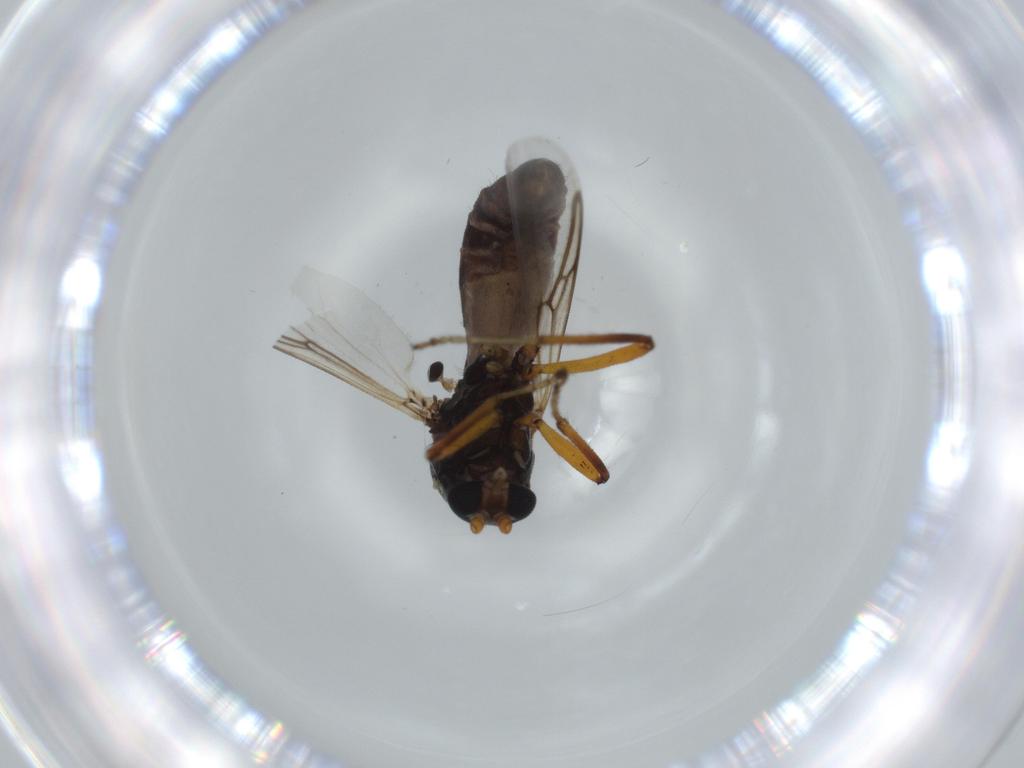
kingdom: Animalia
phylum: Arthropoda
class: Insecta
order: Diptera
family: Ceratopogonidae
